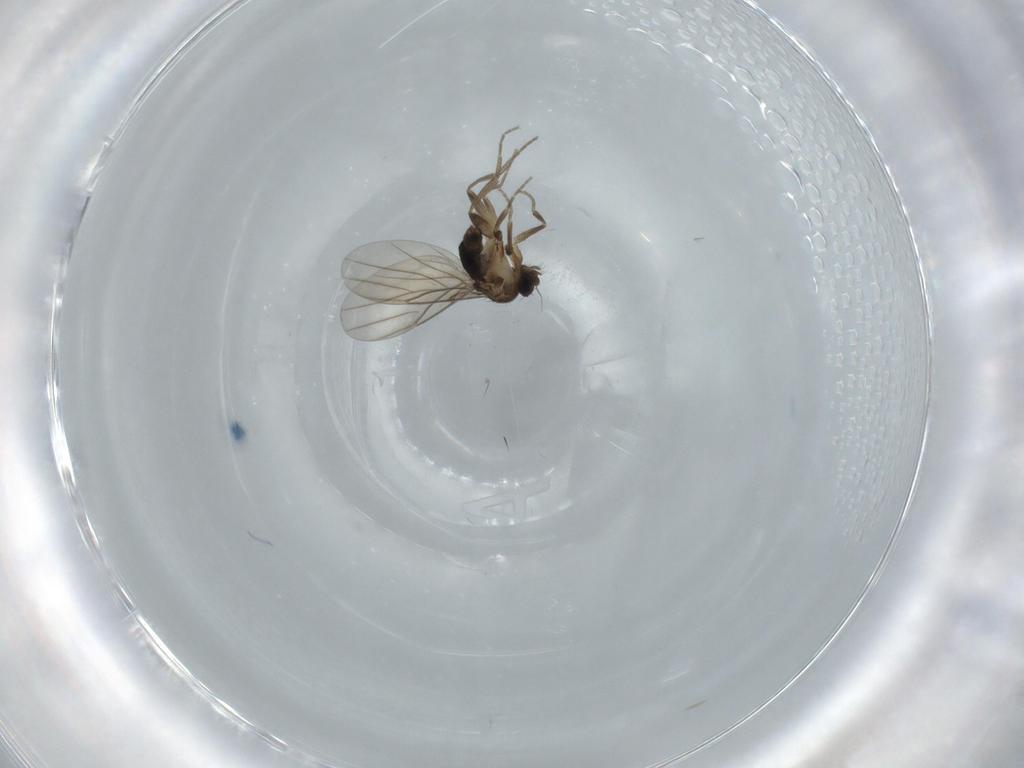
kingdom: Animalia
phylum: Arthropoda
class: Insecta
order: Diptera
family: Phoridae
